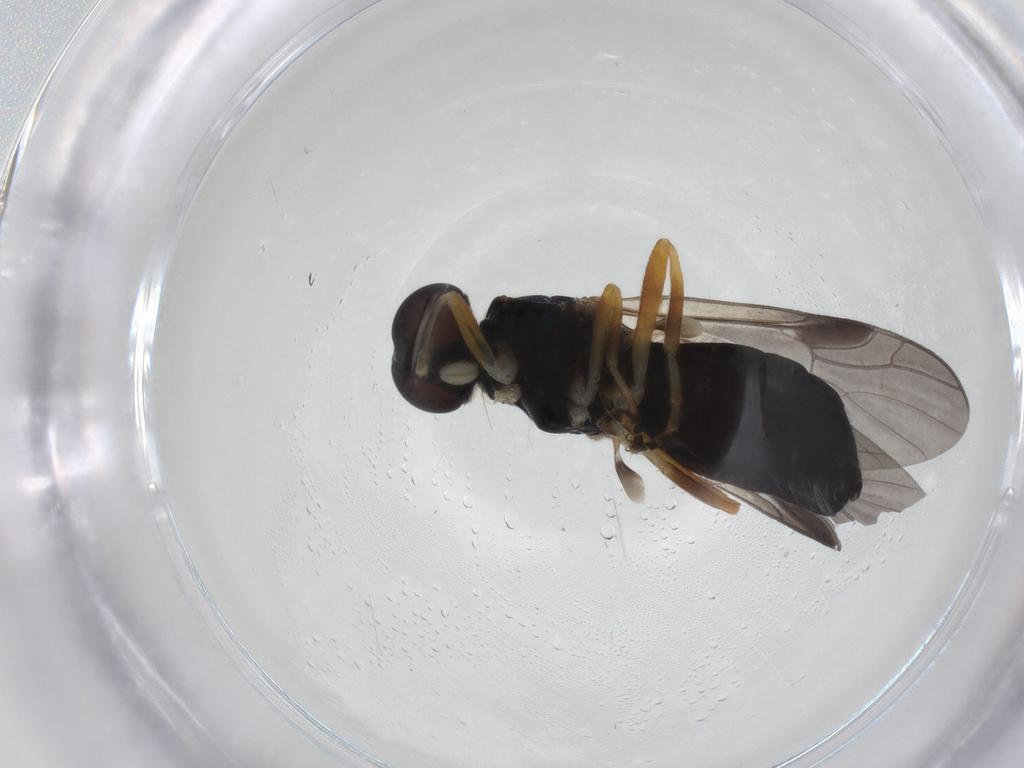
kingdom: Animalia
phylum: Arthropoda
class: Insecta
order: Diptera
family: Stratiomyidae
